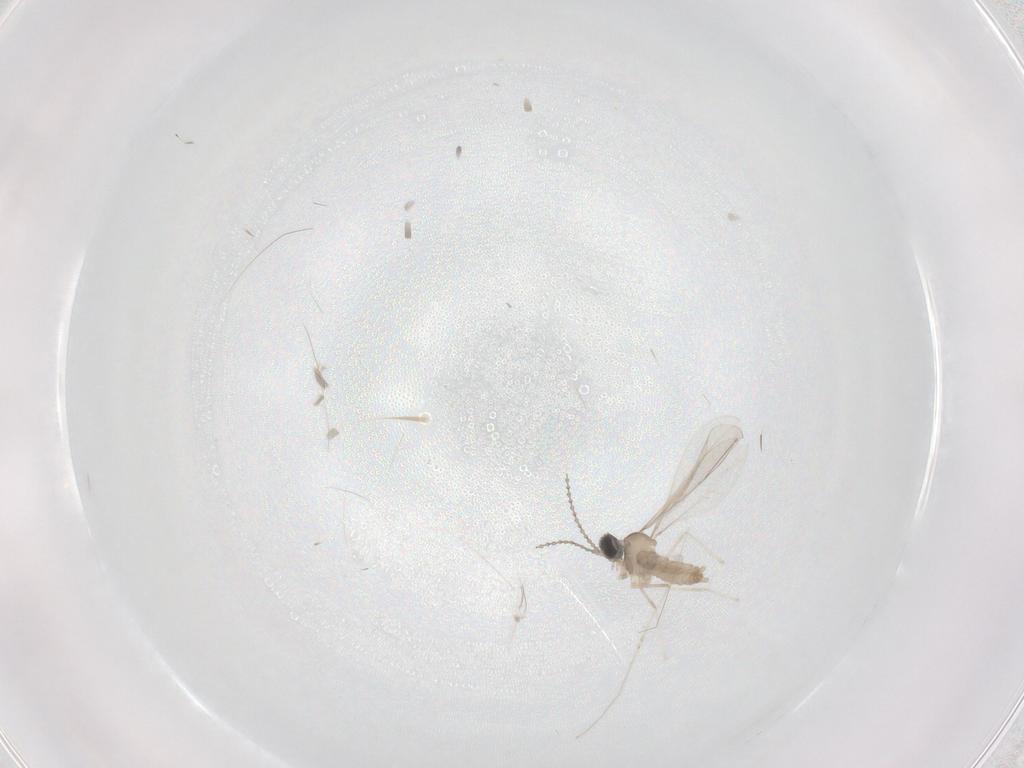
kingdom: Animalia
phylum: Arthropoda
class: Insecta
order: Diptera
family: Cecidomyiidae
